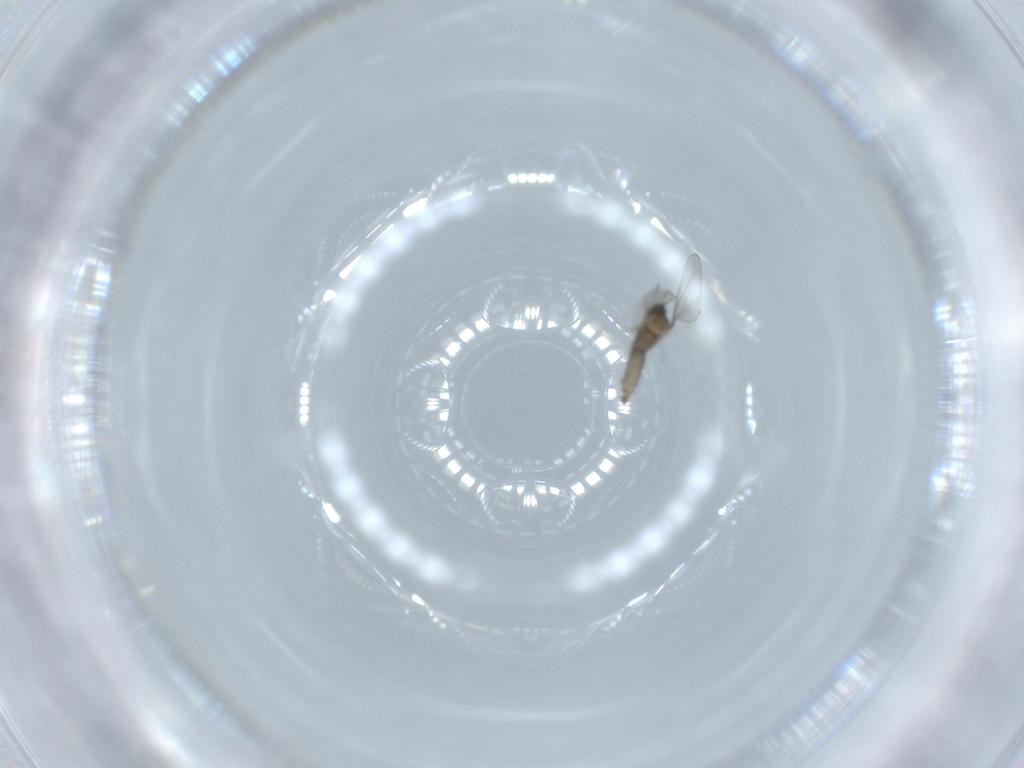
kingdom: Animalia
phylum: Arthropoda
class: Insecta
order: Diptera
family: Cecidomyiidae
